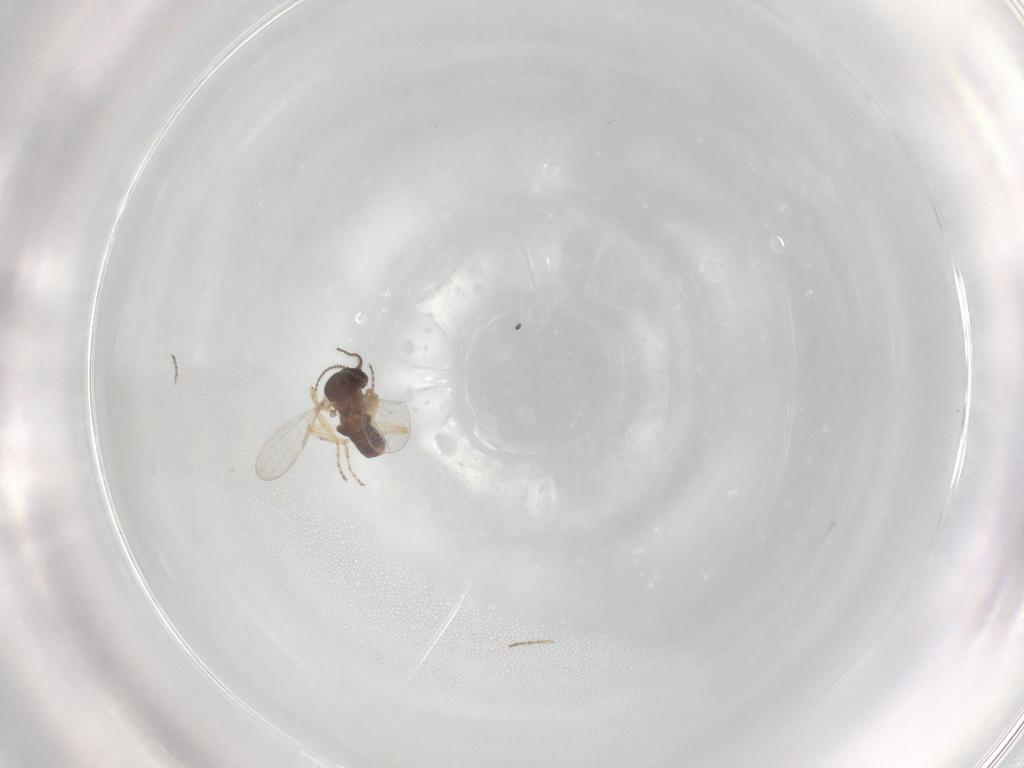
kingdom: Animalia
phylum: Arthropoda
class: Insecta
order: Diptera
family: Ceratopogonidae
